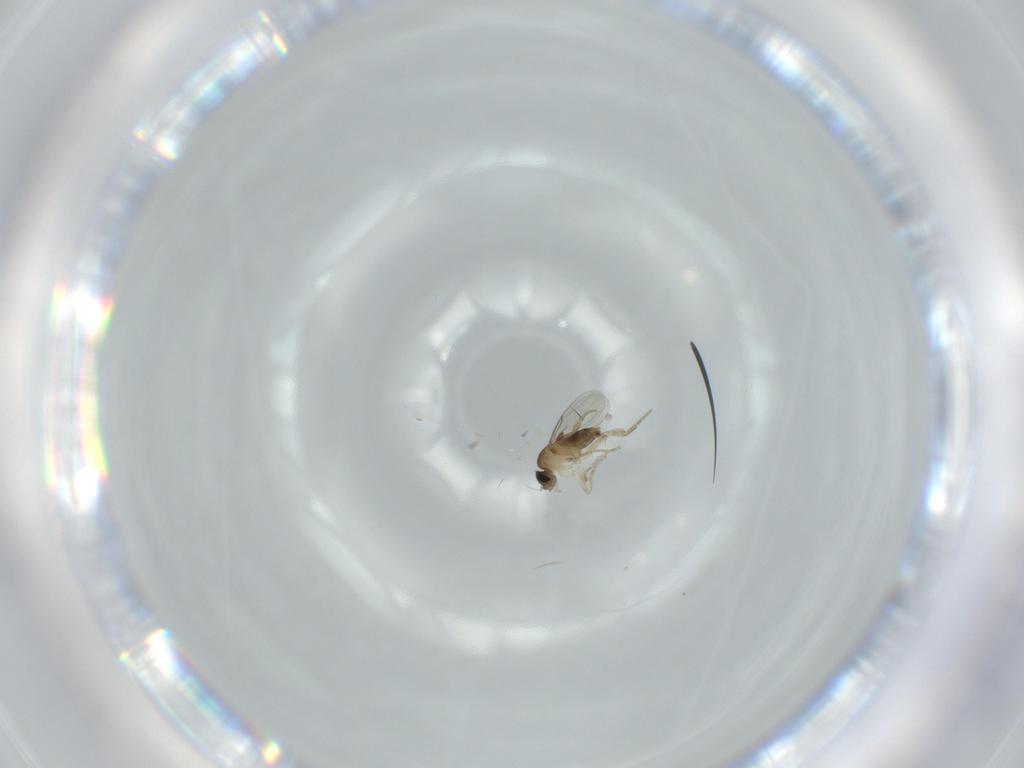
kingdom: Animalia
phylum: Arthropoda
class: Insecta
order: Diptera
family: Phoridae
